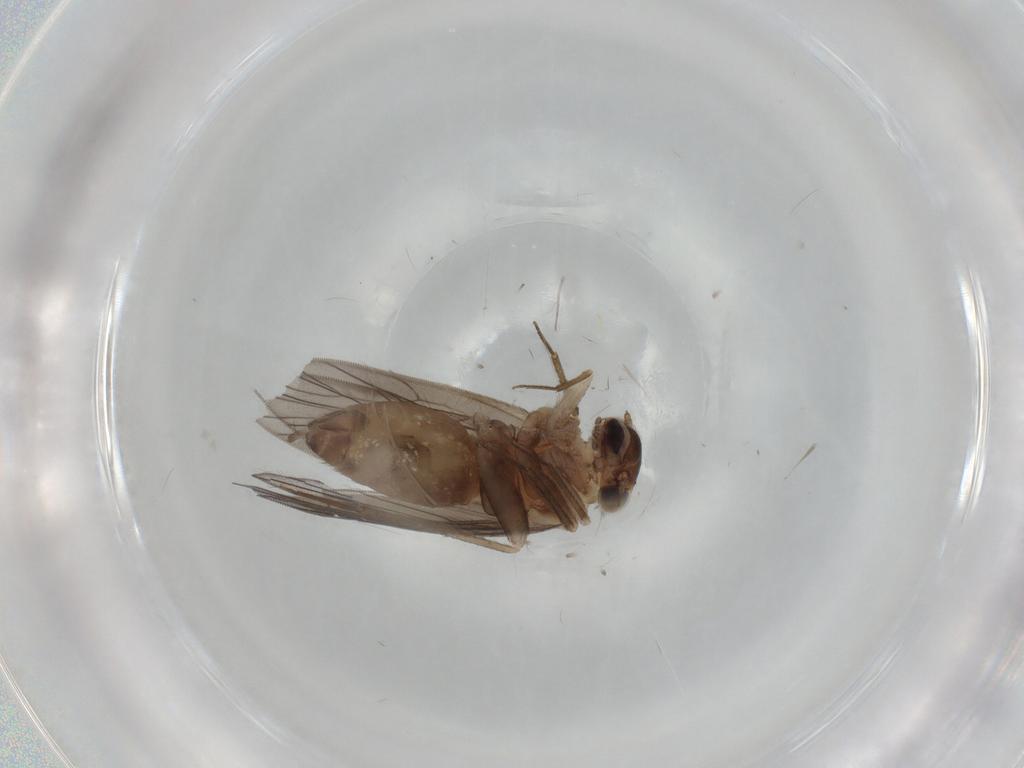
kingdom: Animalia
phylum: Arthropoda
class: Insecta
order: Psocodea
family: Lepidopsocidae
